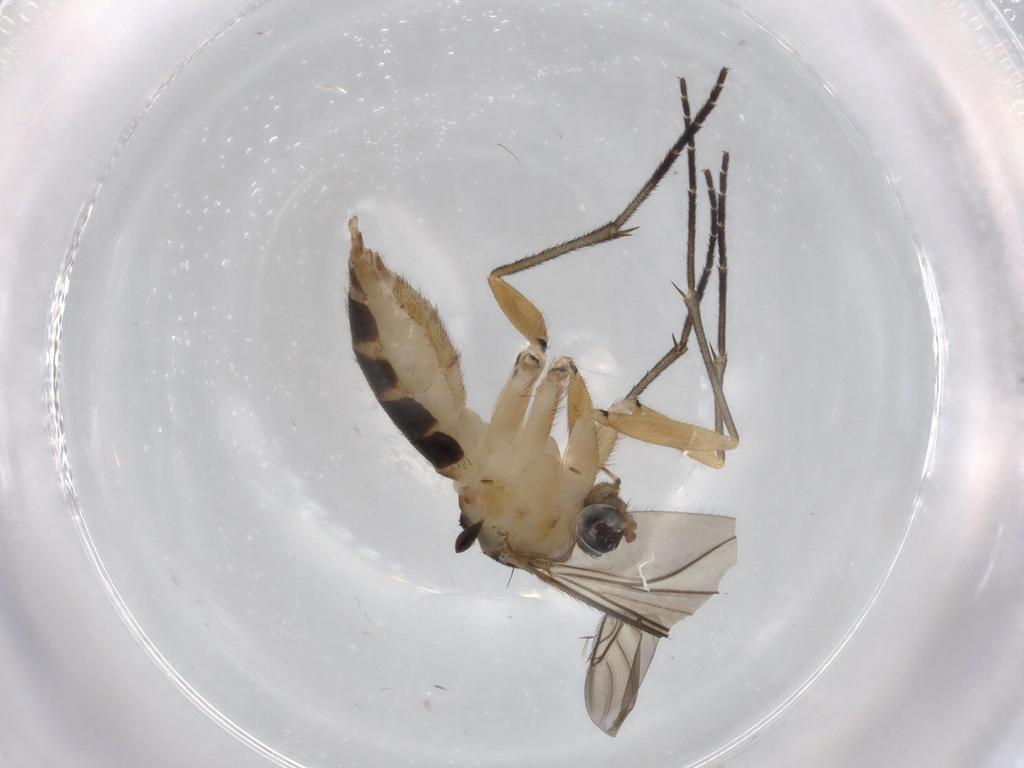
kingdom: Animalia
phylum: Arthropoda
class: Insecta
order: Diptera
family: Sciaridae
